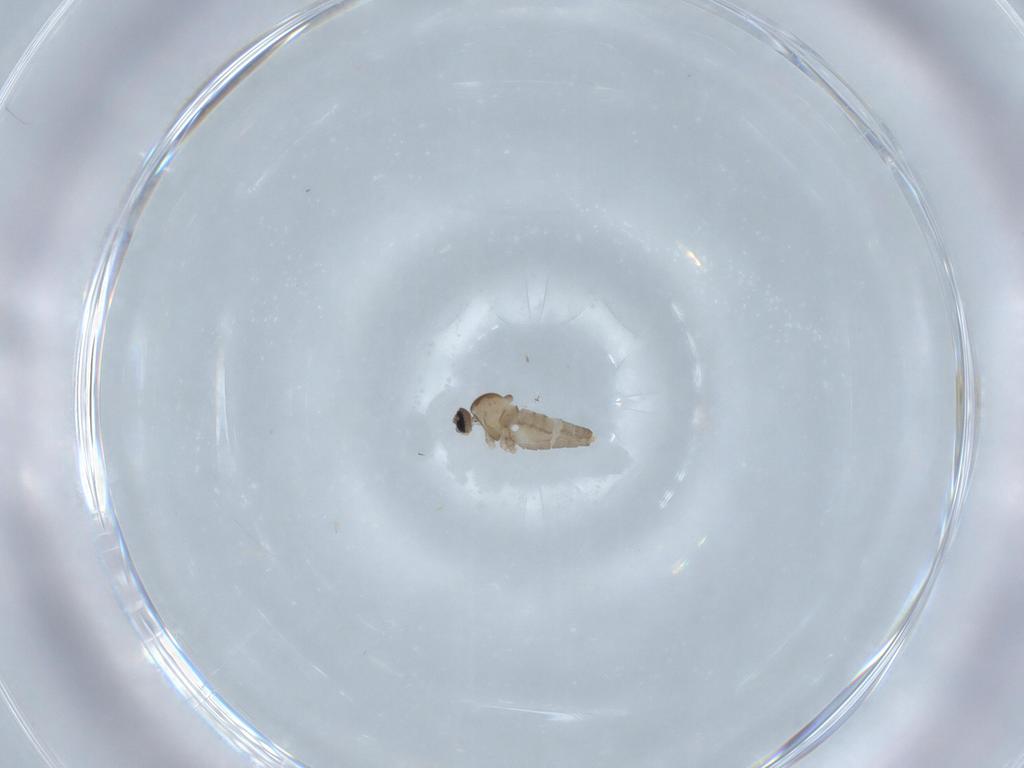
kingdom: Animalia
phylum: Arthropoda
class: Insecta
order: Diptera
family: Cecidomyiidae
